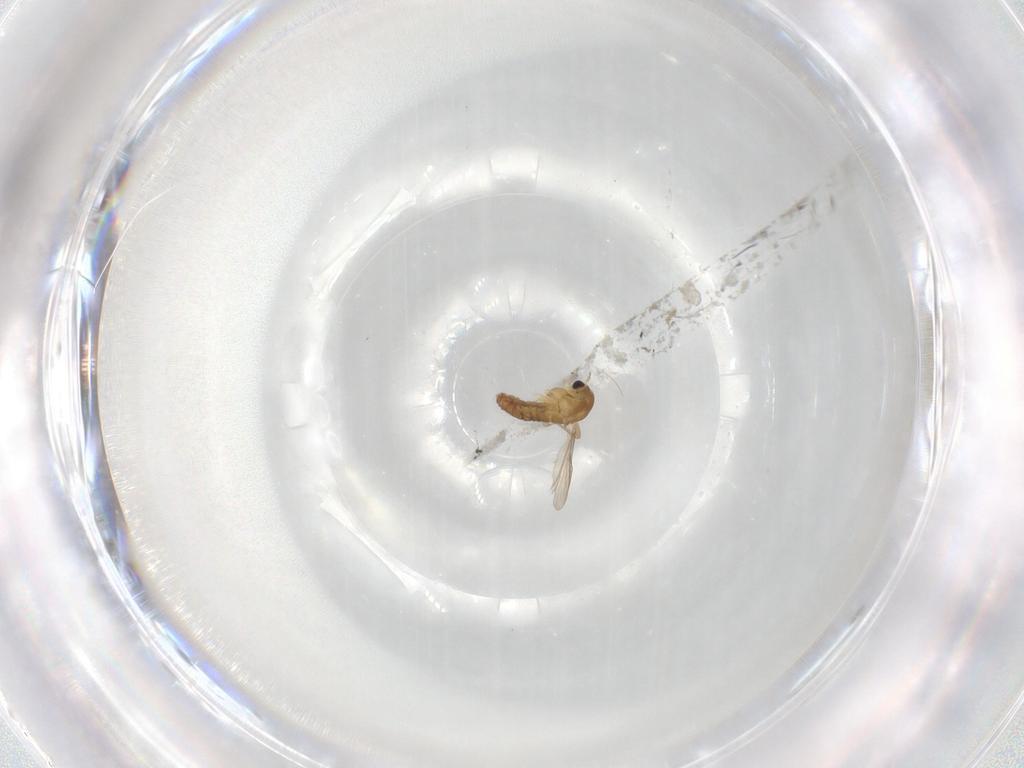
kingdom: Animalia
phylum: Arthropoda
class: Insecta
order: Diptera
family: Chironomidae
